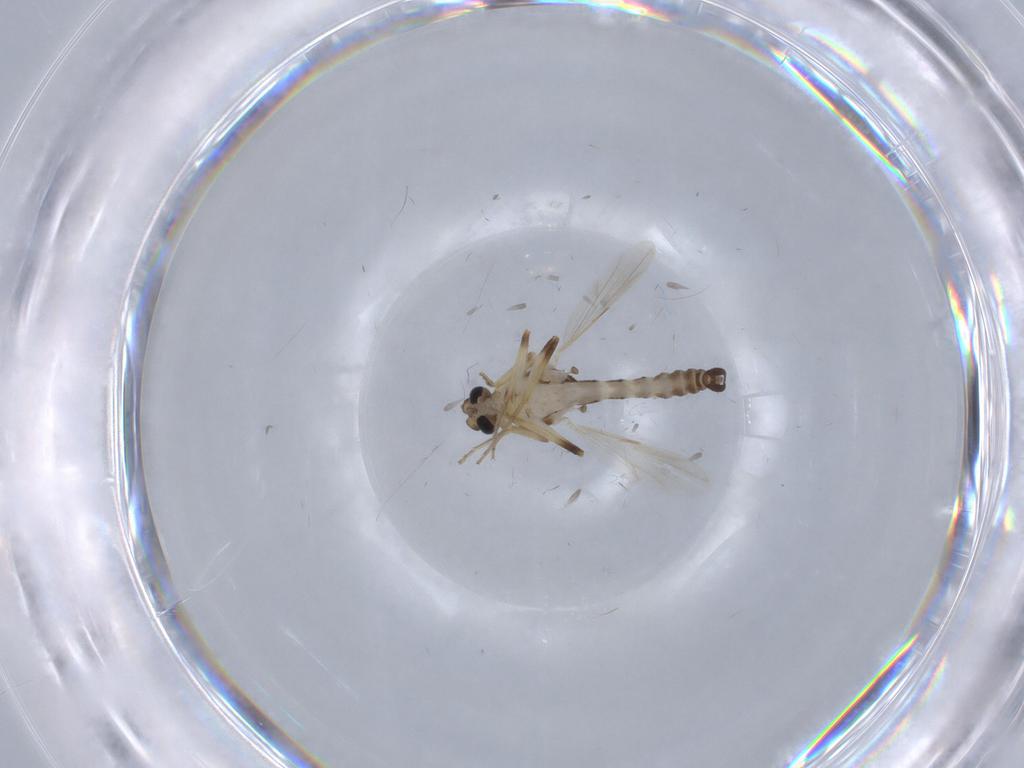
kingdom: Animalia
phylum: Arthropoda
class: Insecta
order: Diptera
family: Ceratopogonidae
